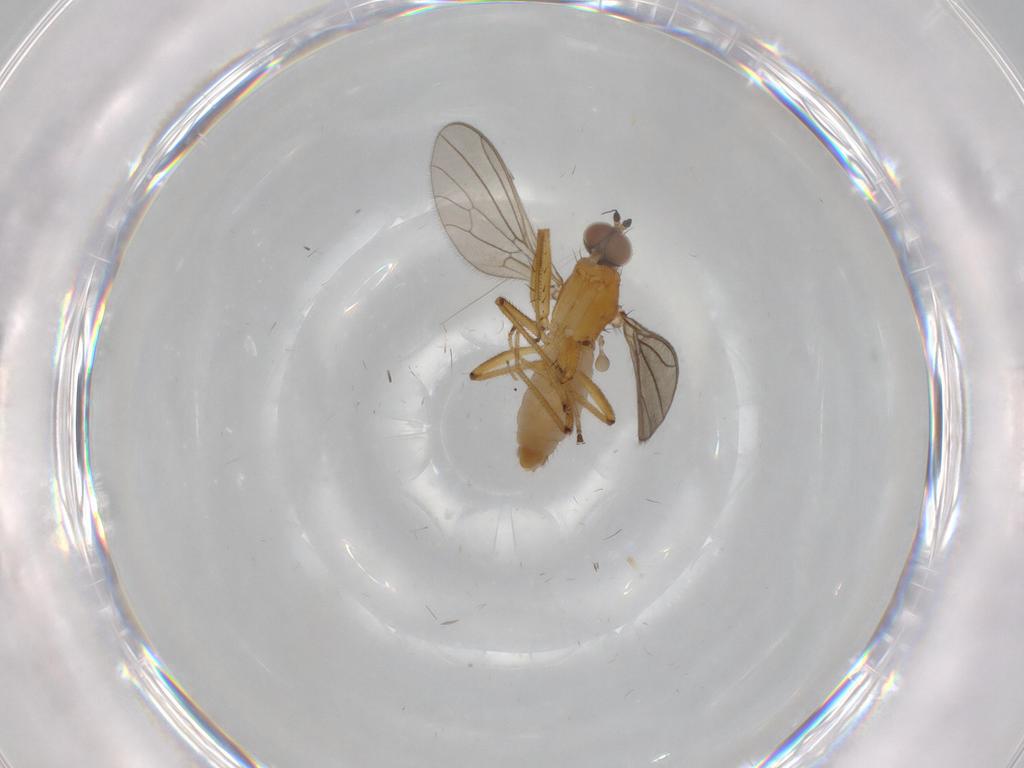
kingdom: Animalia
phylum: Arthropoda
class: Insecta
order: Diptera
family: Empididae
